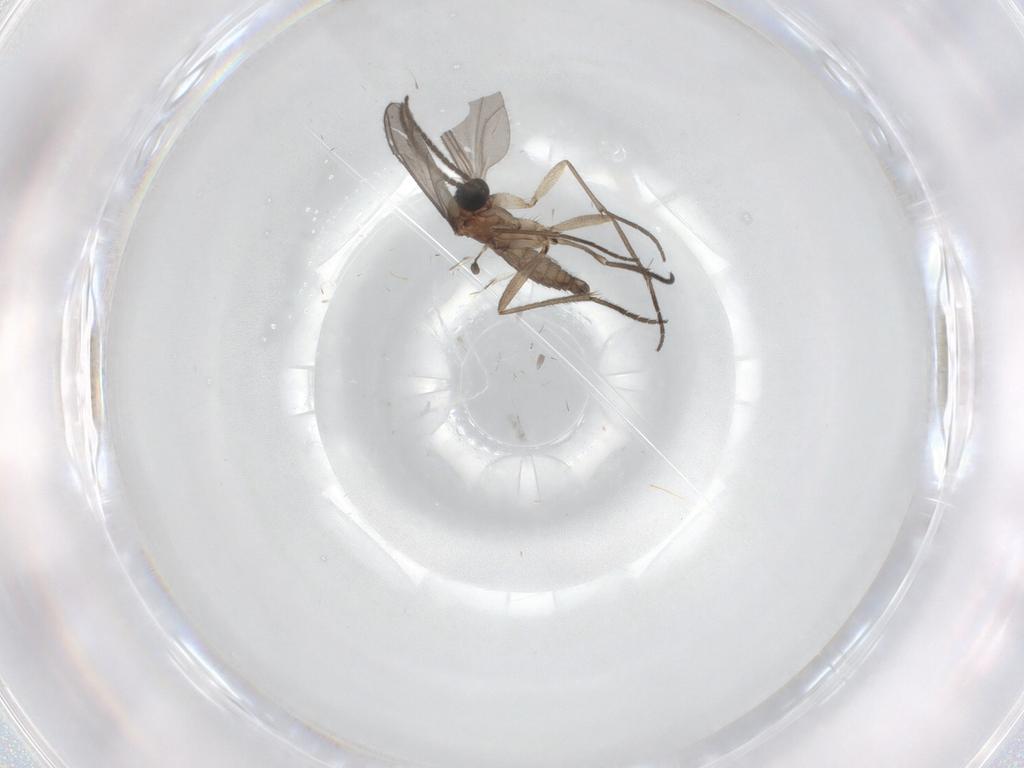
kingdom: Animalia
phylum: Arthropoda
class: Insecta
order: Diptera
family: Sciaridae
